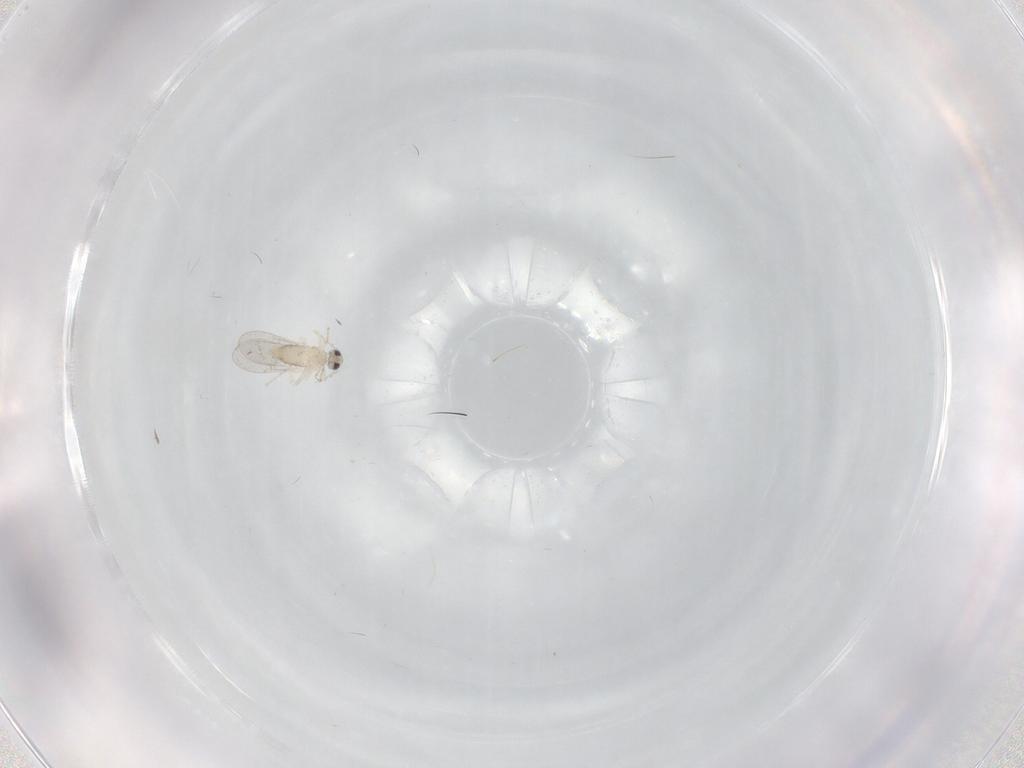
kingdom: Animalia
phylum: Arthropoda
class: Insecta
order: Diptera
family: Cecidomyiidae
